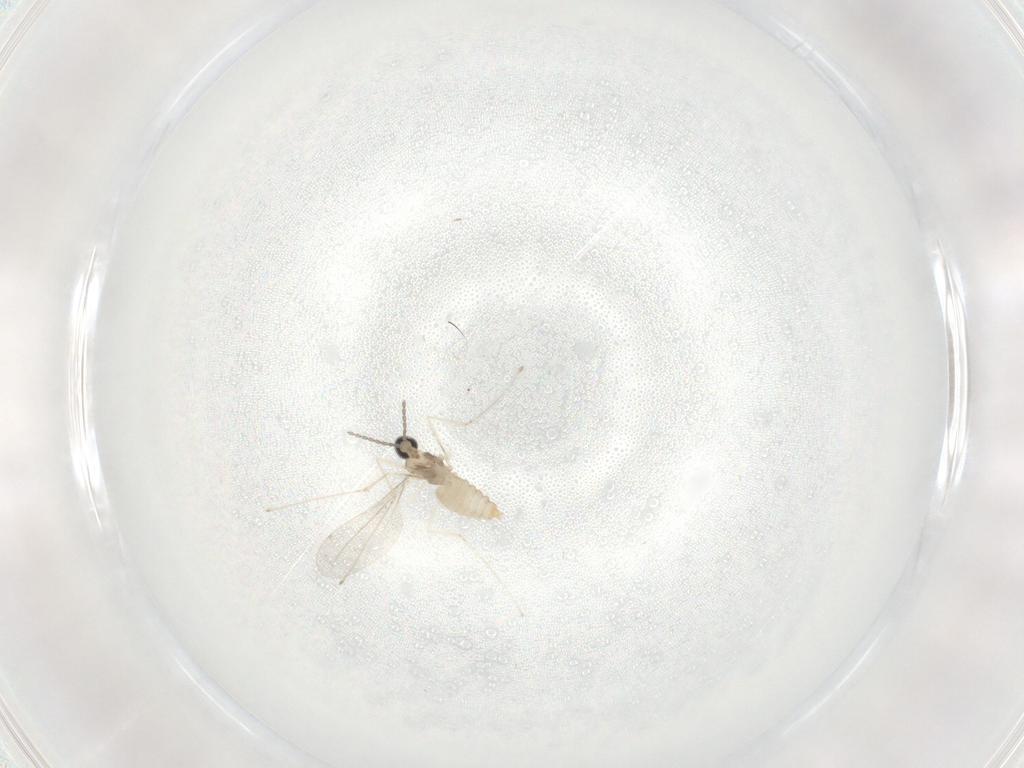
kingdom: Animalia
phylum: Arthropoda
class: Insecta
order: Diptera
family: Cecidomyiidae
